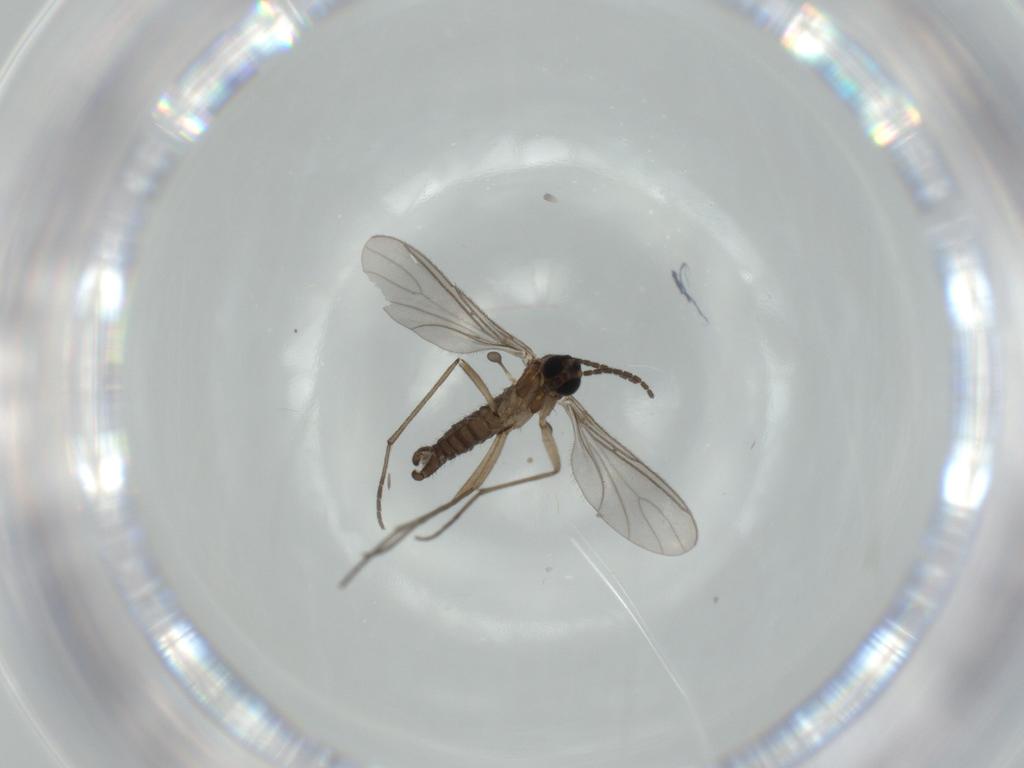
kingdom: Animalia
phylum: Arthropoda
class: Insecta
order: Diptera
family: Sciaridae
